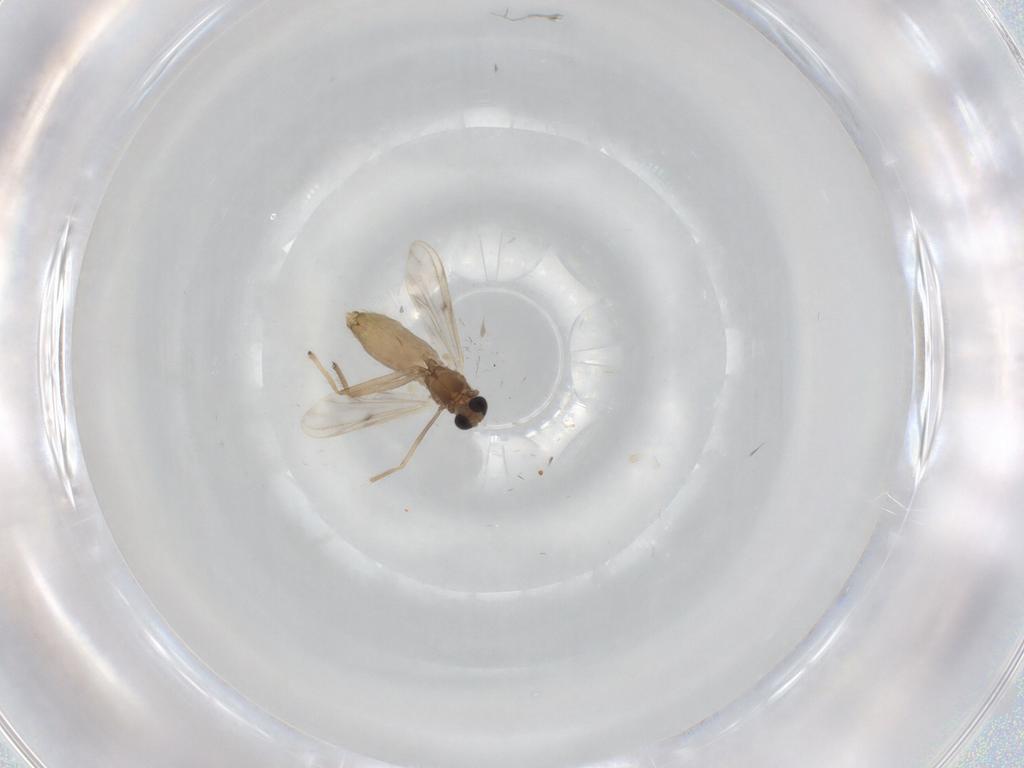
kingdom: Animalia
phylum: Arthropoda
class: Insecta
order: Diptera
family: Chironomidae
